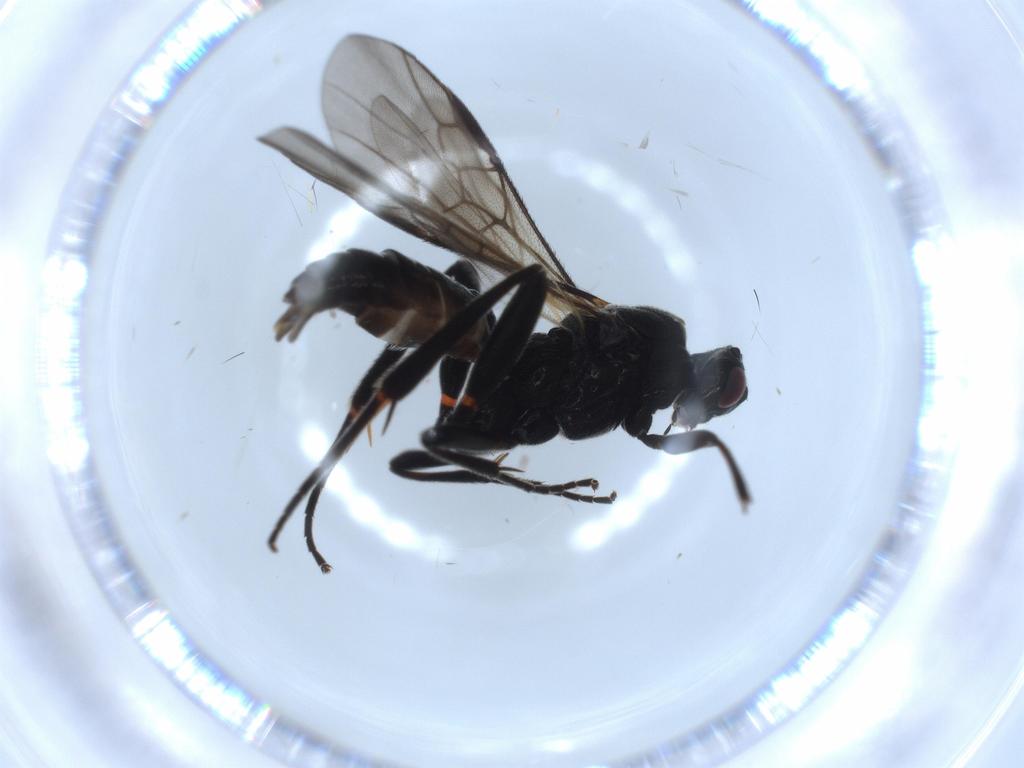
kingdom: Animalia
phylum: Arthropoda
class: Insecta
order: Hymenoptera
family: Braconidae
